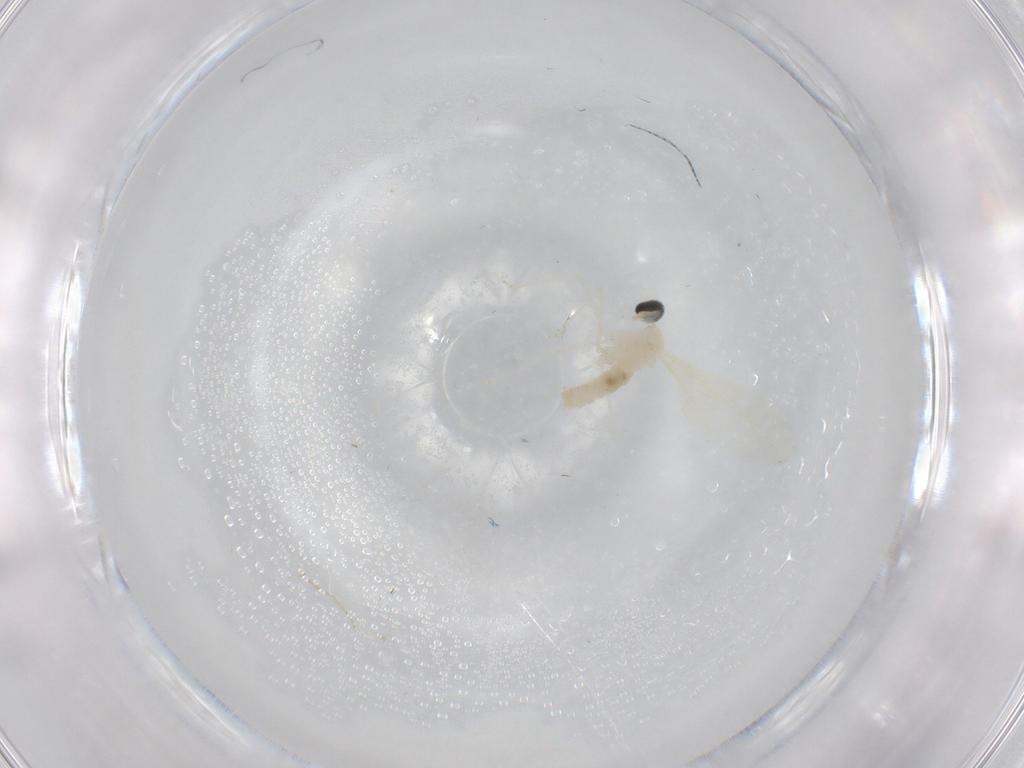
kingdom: Animalia
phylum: Arthropoda
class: Insecta
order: Diptera
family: Cecidomyiidae
